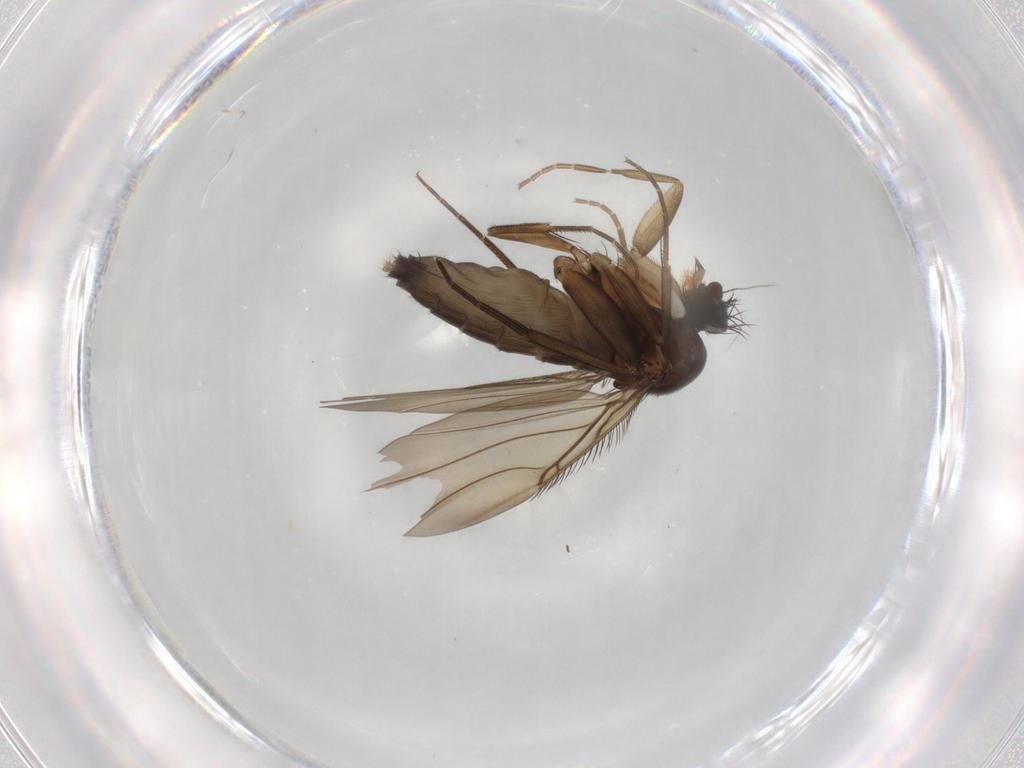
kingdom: Animalia
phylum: Arthropoda
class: Insecta
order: Diptera
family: Phoridae
